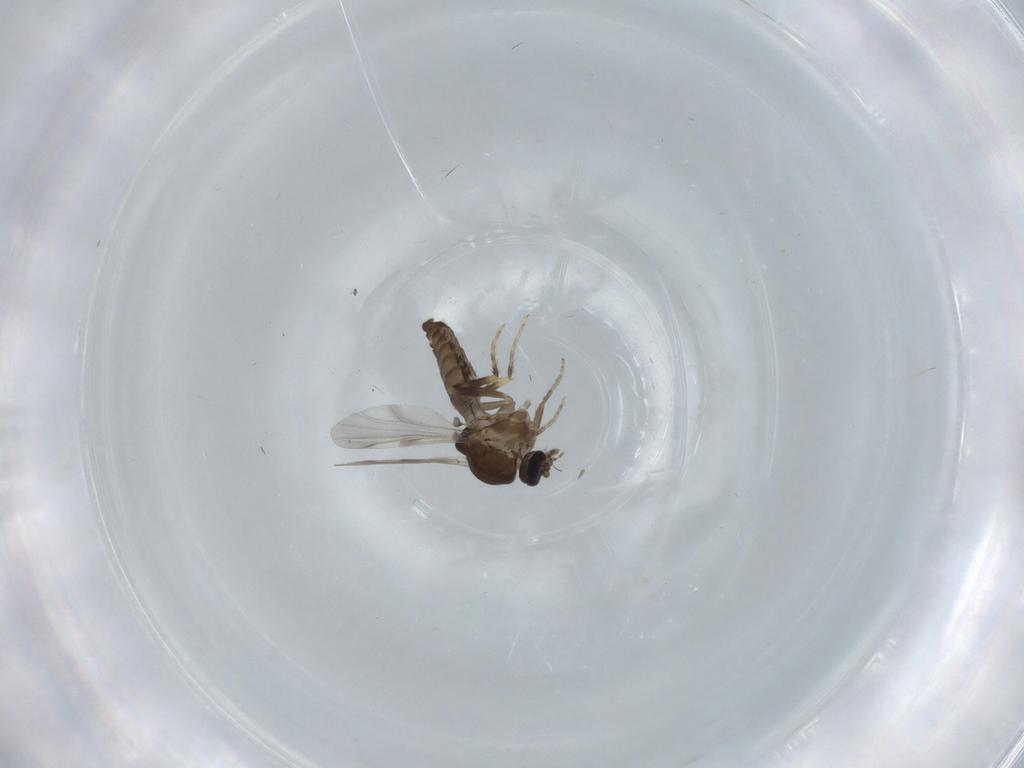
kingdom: Animalia
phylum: Arthropoda
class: Insecta
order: Diptera
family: Ceratopogonidae
